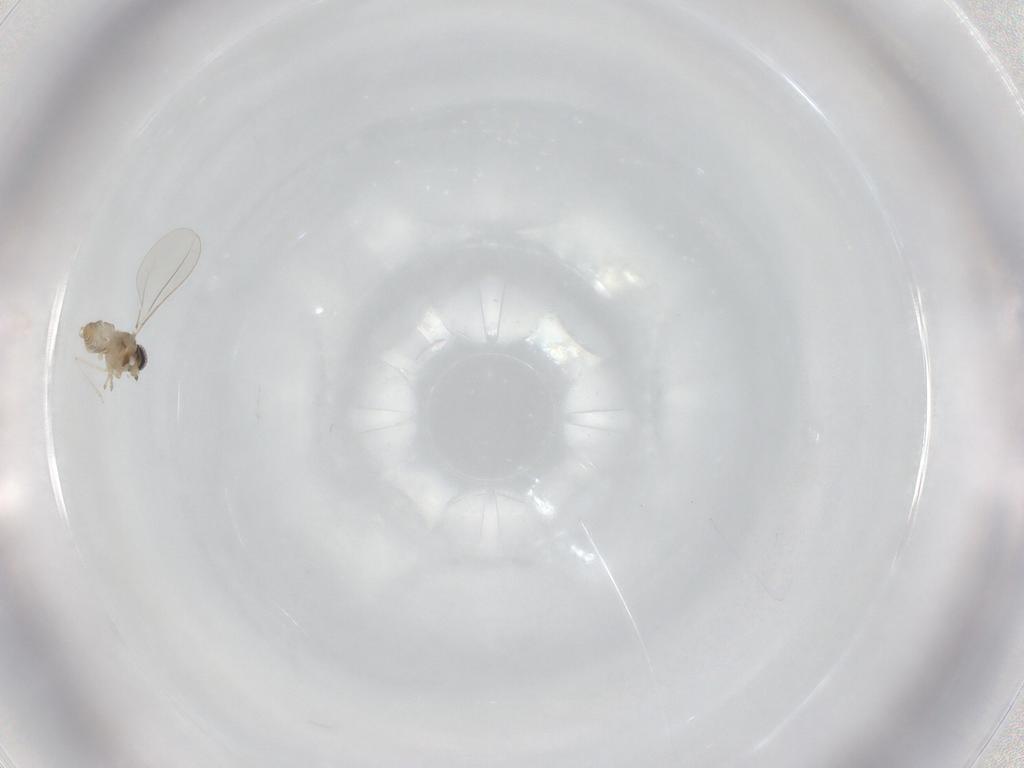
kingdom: Animalia
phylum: Arthropoda
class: Insecta
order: Diptera
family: Cecidomyiidae
